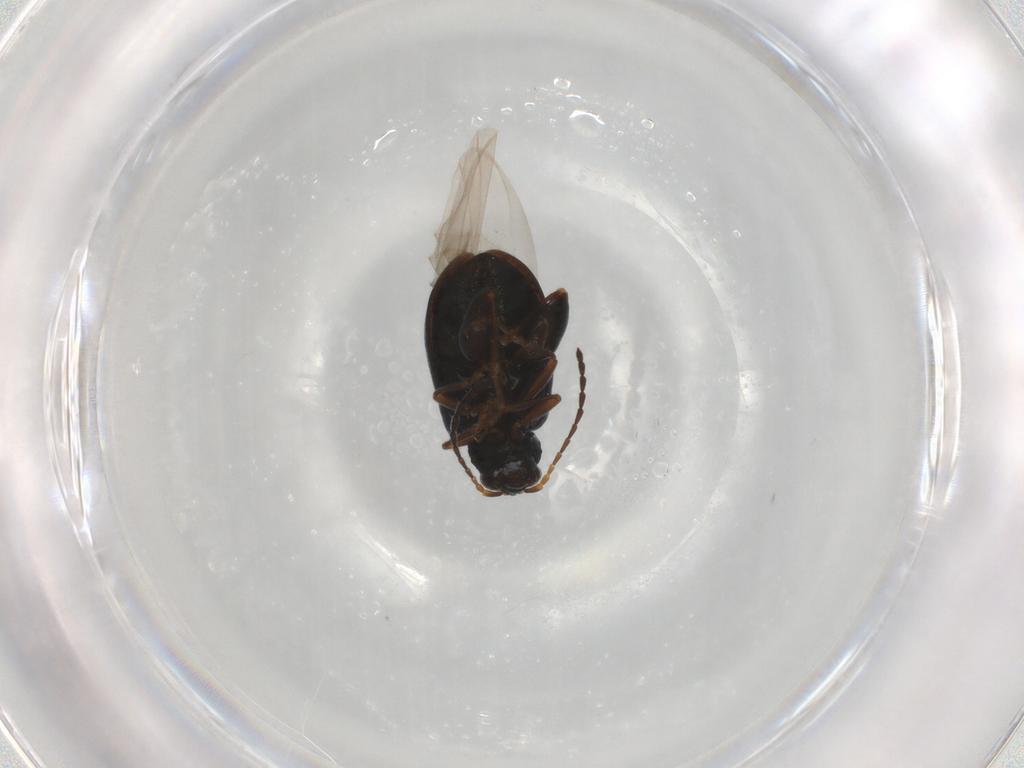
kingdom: Animalia
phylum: Arthropoda
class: Insecta
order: Coleoptera
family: Chrysomelidae
